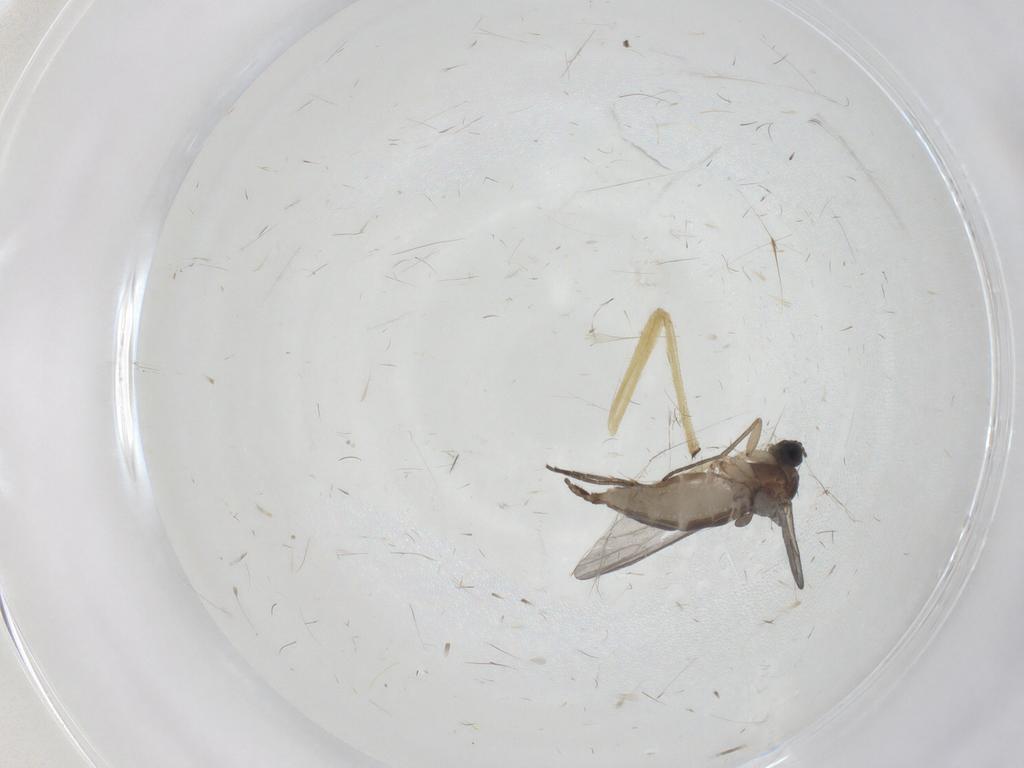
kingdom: Animalia
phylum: Arthropoda
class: Insecta
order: Diptera
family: Sciaridae
